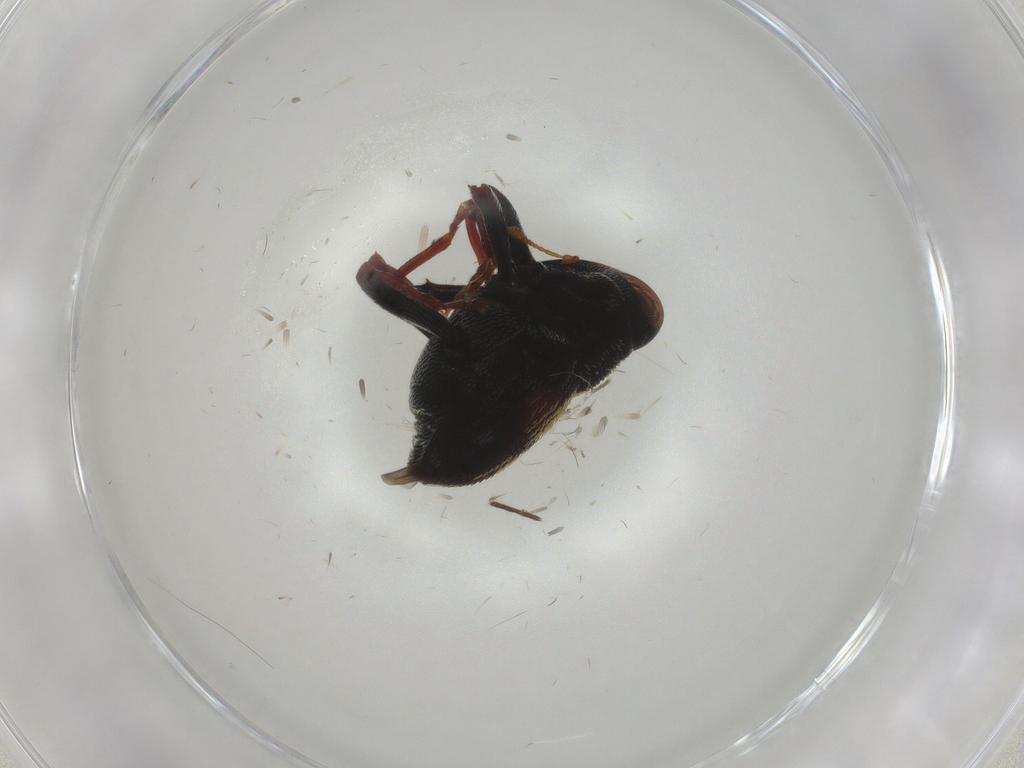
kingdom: Animalia
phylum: Arthropoda
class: Insecta
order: Coleoptera
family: Curculionidae
